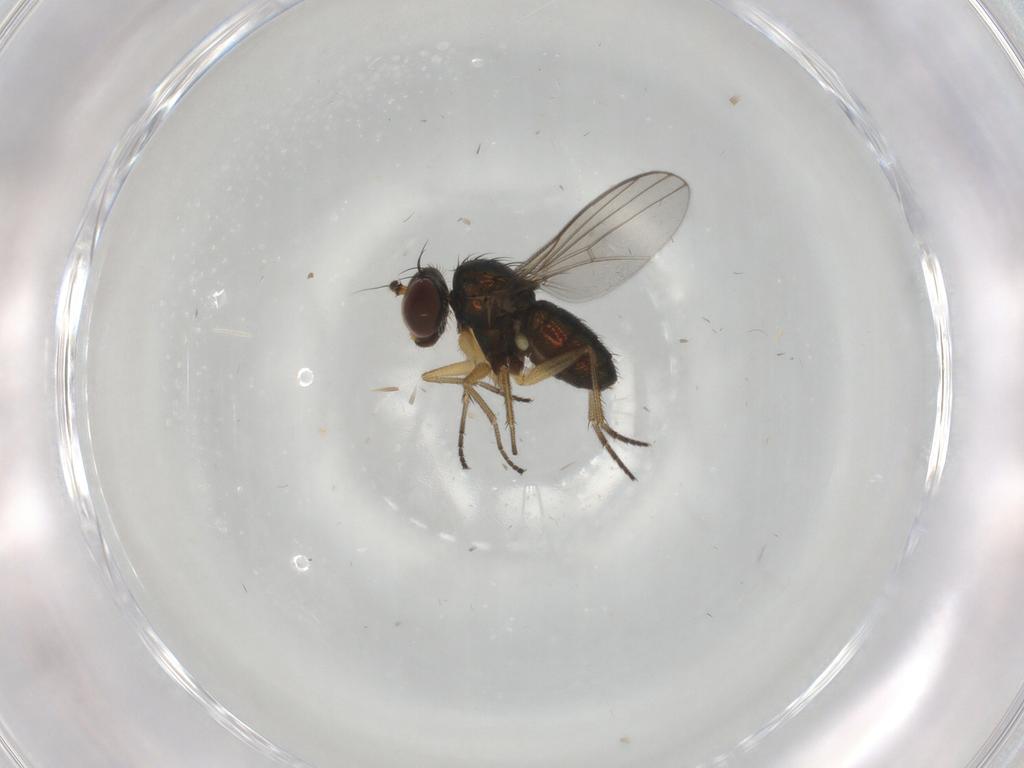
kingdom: Animalia
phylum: Arthropoda
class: Insecta
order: Diptera
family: Dolichopodidae
